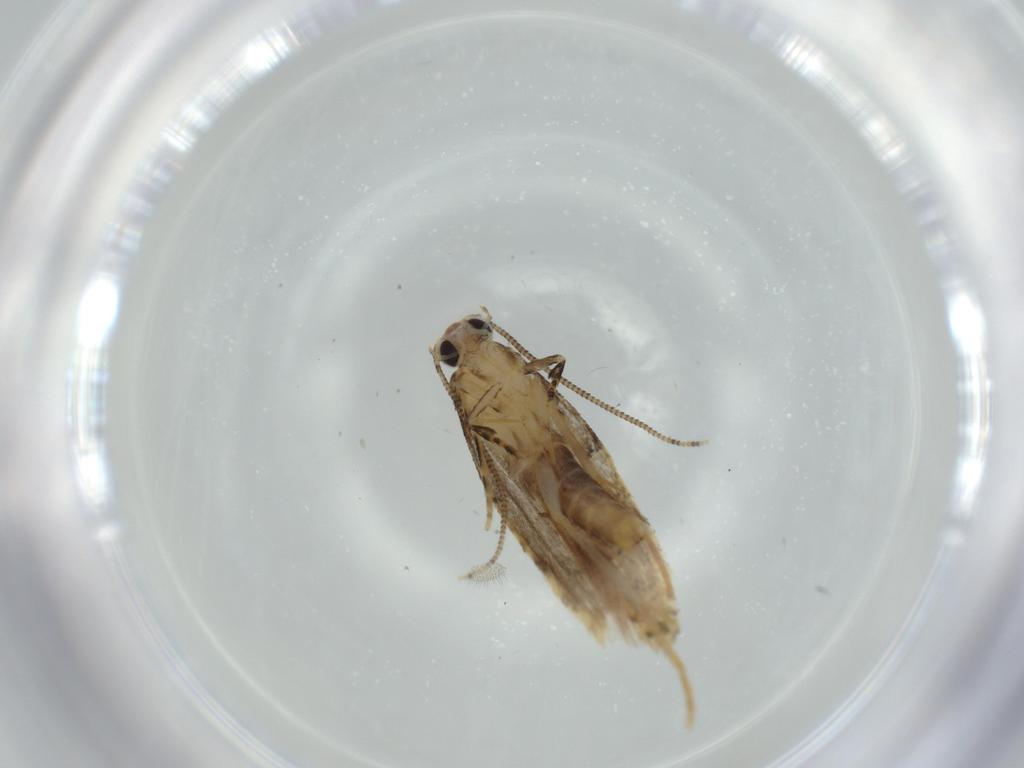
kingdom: Animalia
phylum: Arthropoda
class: Insecta
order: Lepidoptera
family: Tineidae
